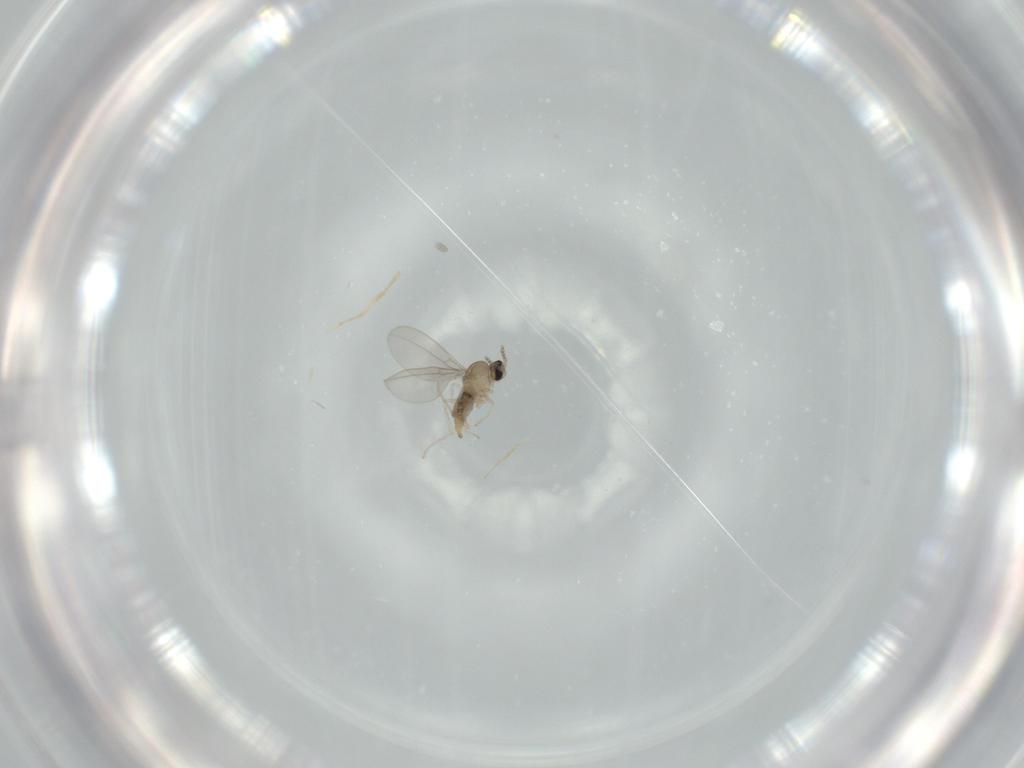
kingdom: Animalia
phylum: Arthropoda
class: Insecta
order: Diptera
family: Cecidomyiidae
